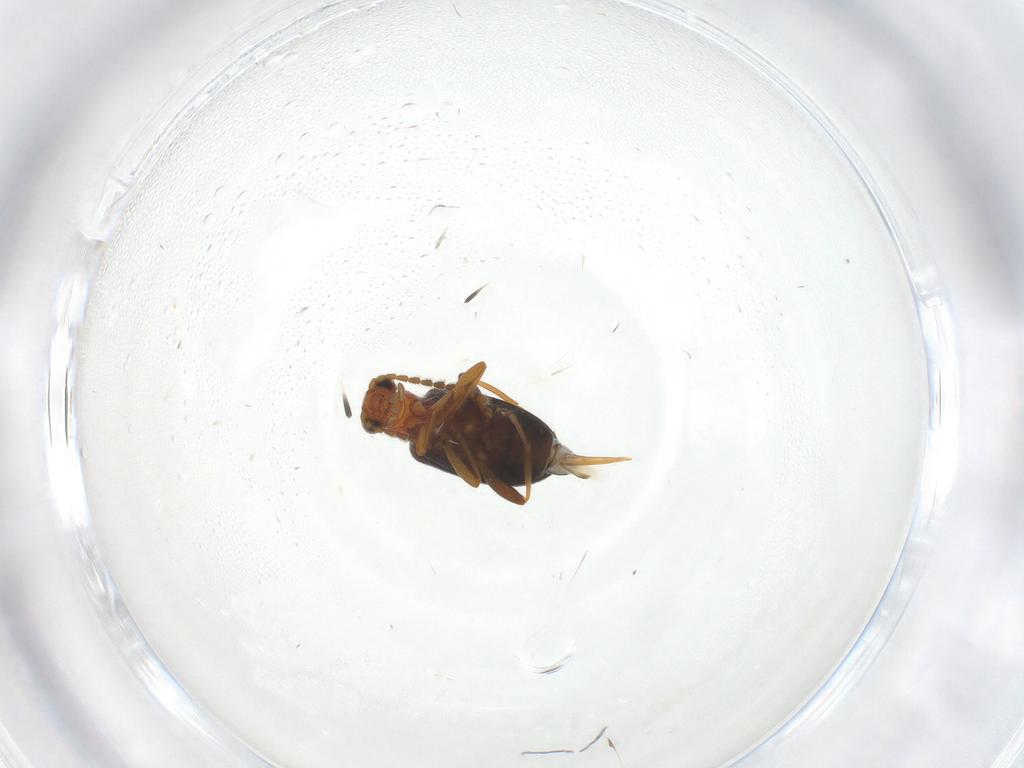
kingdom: Animalia
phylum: Arthropoda
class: Insecta
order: Coleoptera
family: Aderidae
